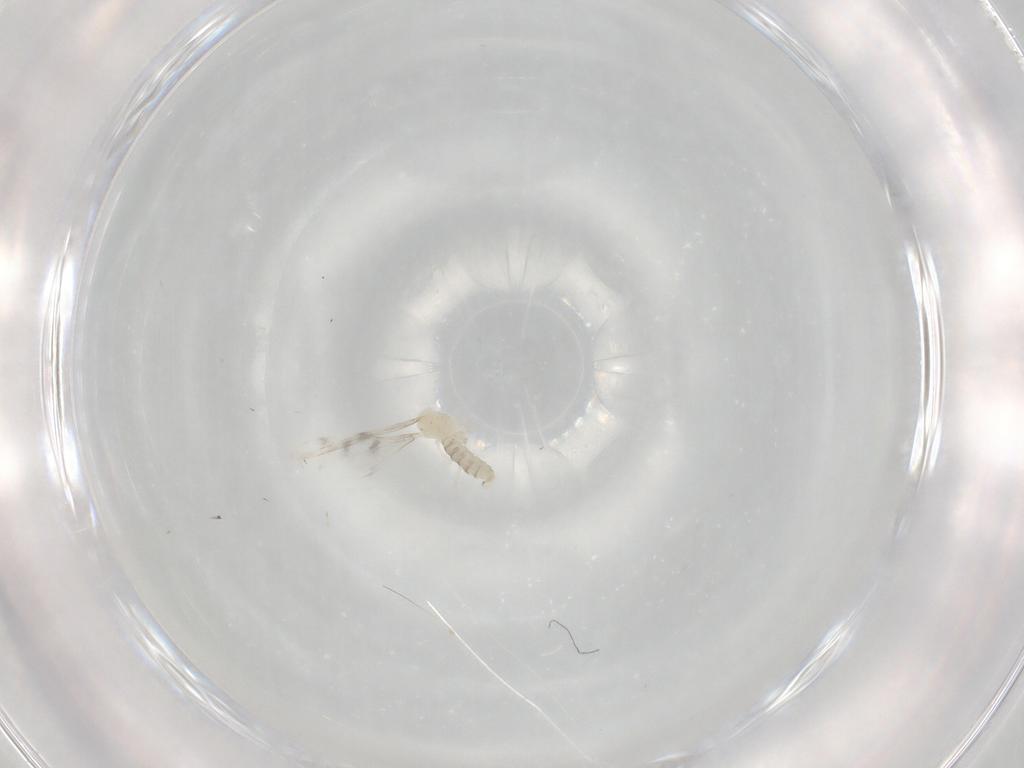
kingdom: Animalia
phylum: Arthropoda
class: Insecta
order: Diptera
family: Cecidomyiidae
